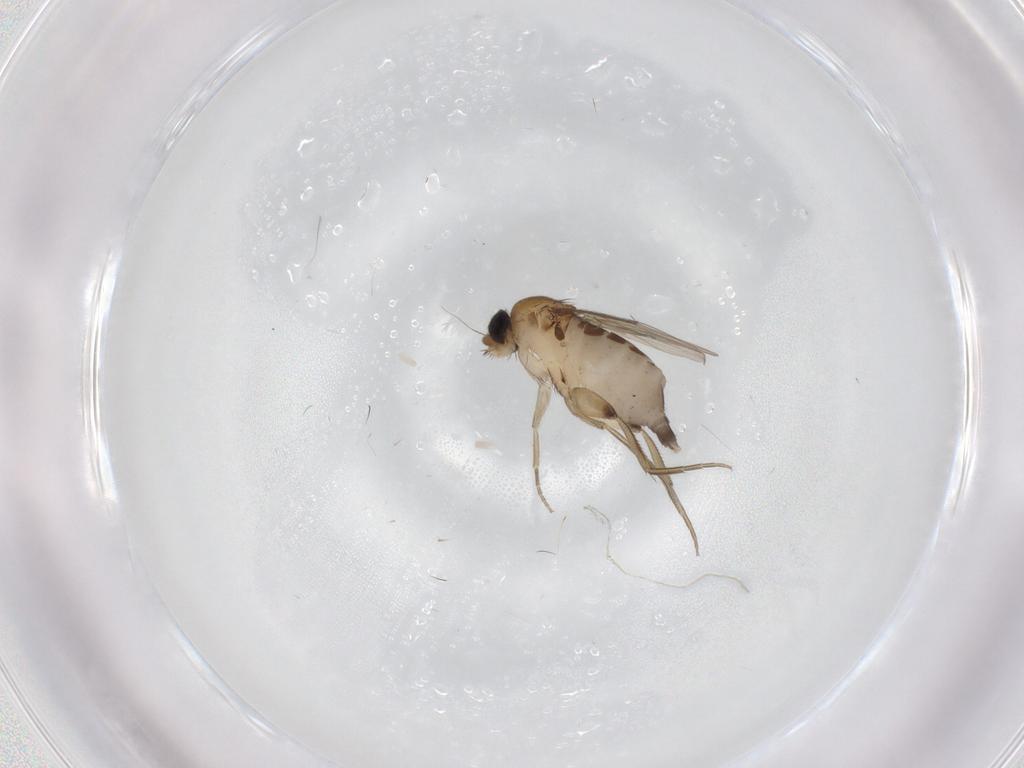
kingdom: Animalia
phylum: Arthropoda
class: Insecta
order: Diptera
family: Phoridae
